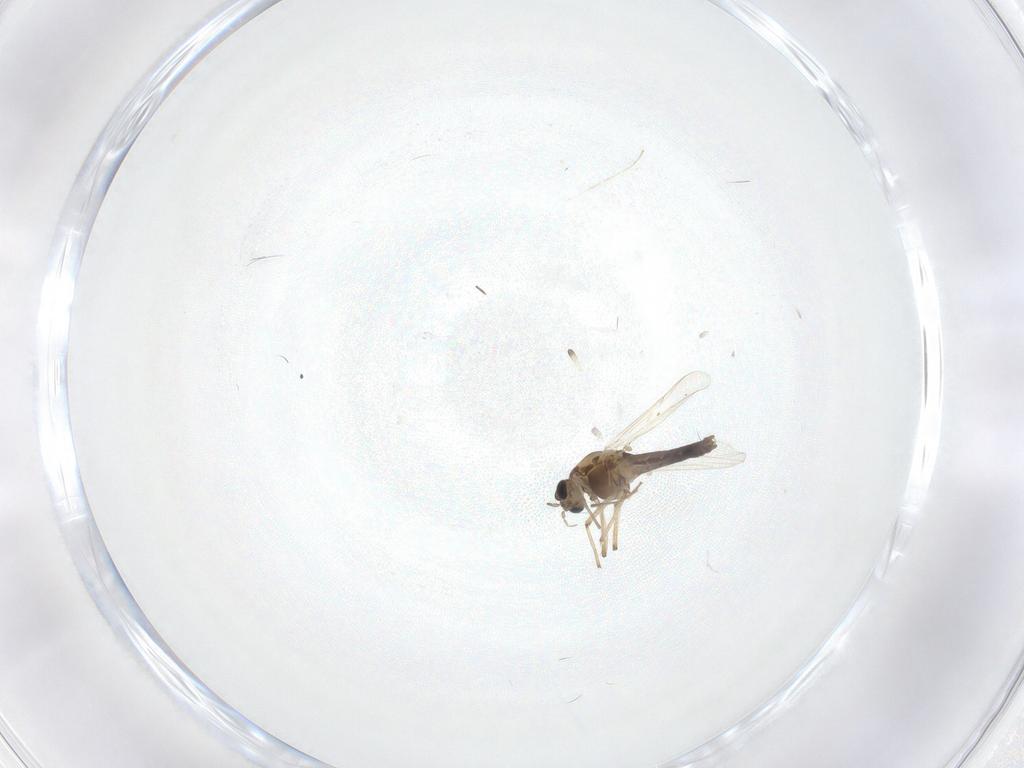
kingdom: Animalia
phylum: Arthropoda
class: Insecta
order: Diptera
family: Chironomidae
